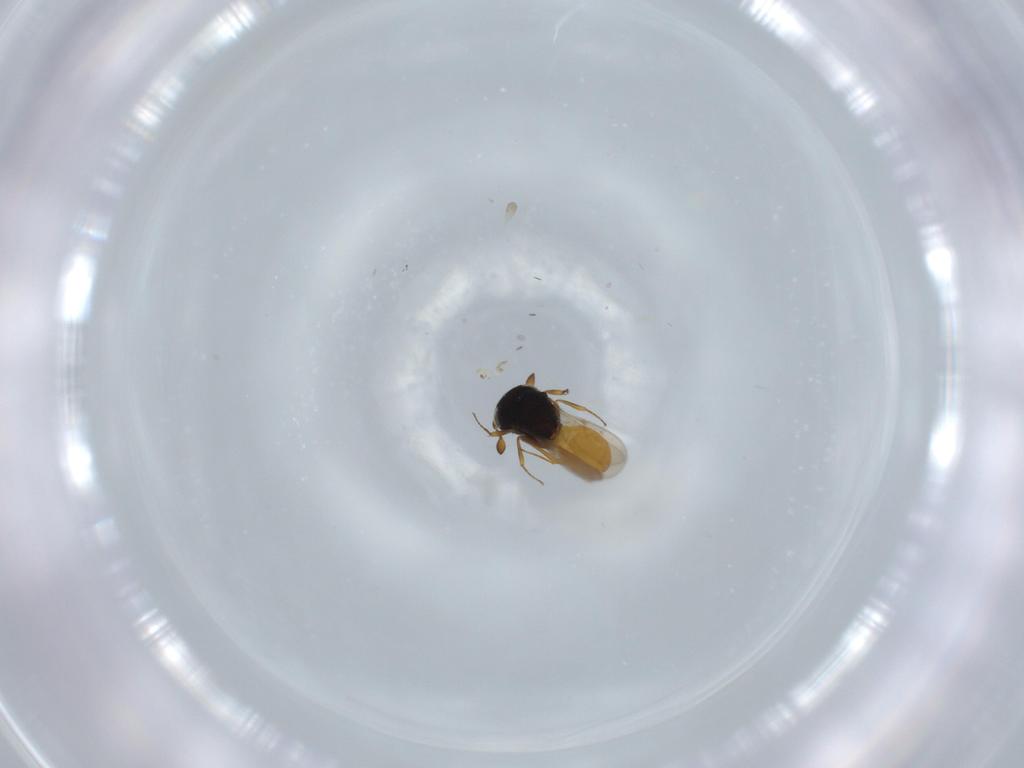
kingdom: Animalia
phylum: Arthropoda
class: Insecta
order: Hymenoptera
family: Scelionidae
